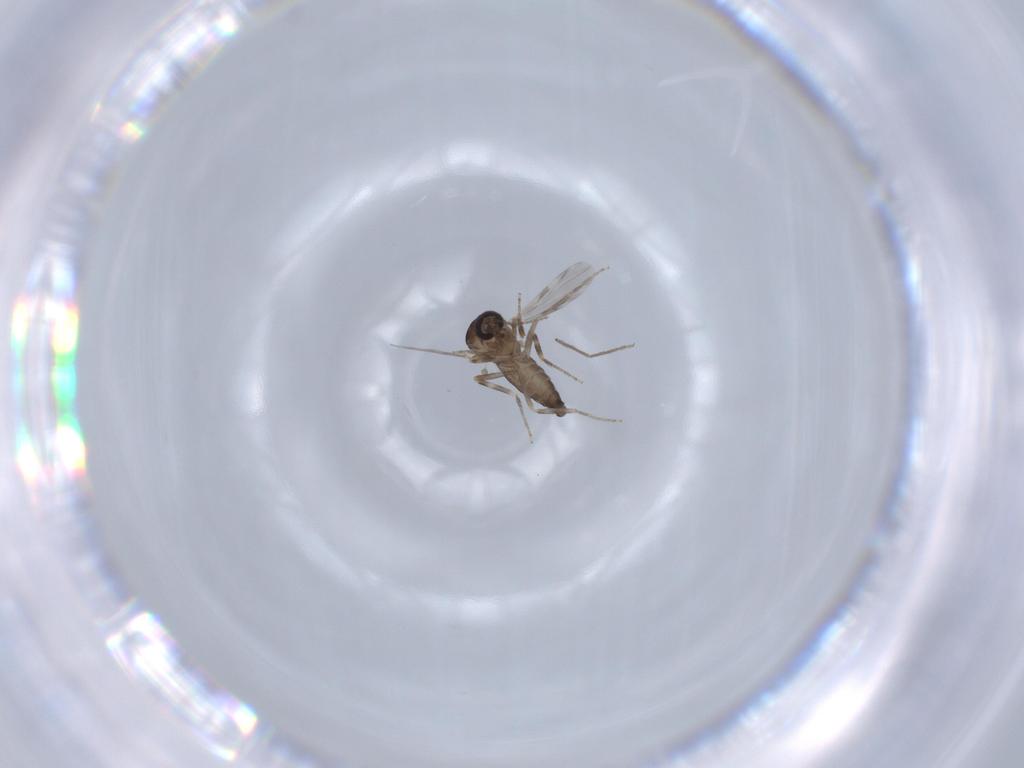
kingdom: Animalia
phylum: Arthropoda
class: Insecta
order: Diptera
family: Ceratopogonidae
